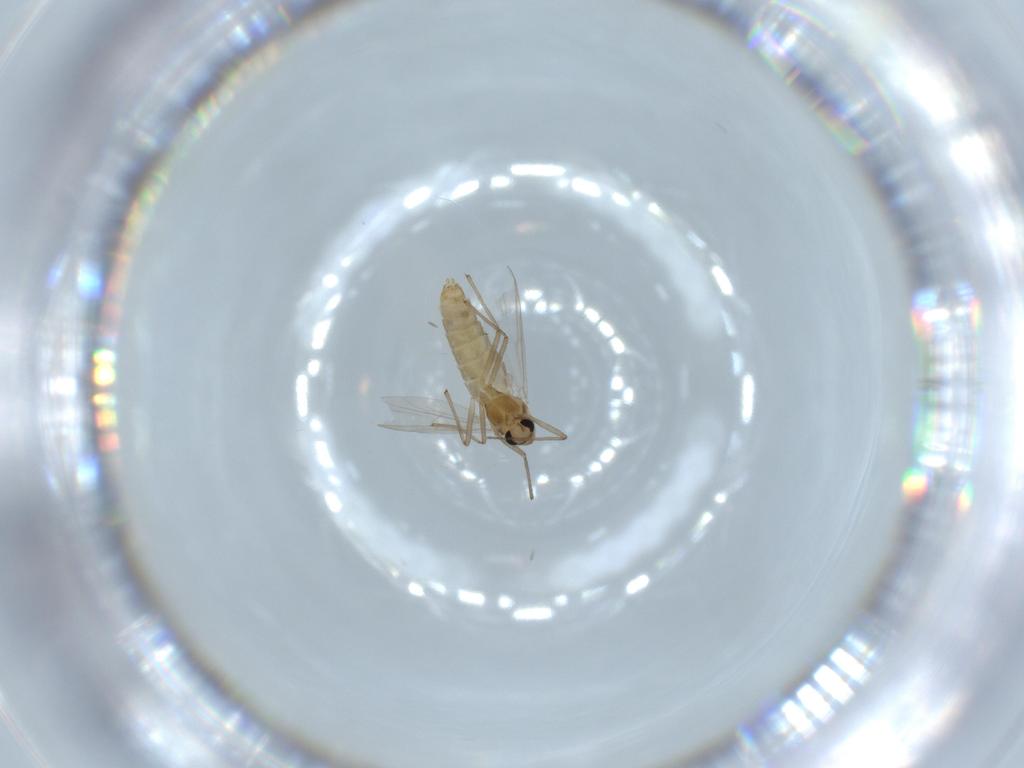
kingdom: Animalia
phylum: Arthropoda
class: Insecta
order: Diptera
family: Chironomidae
